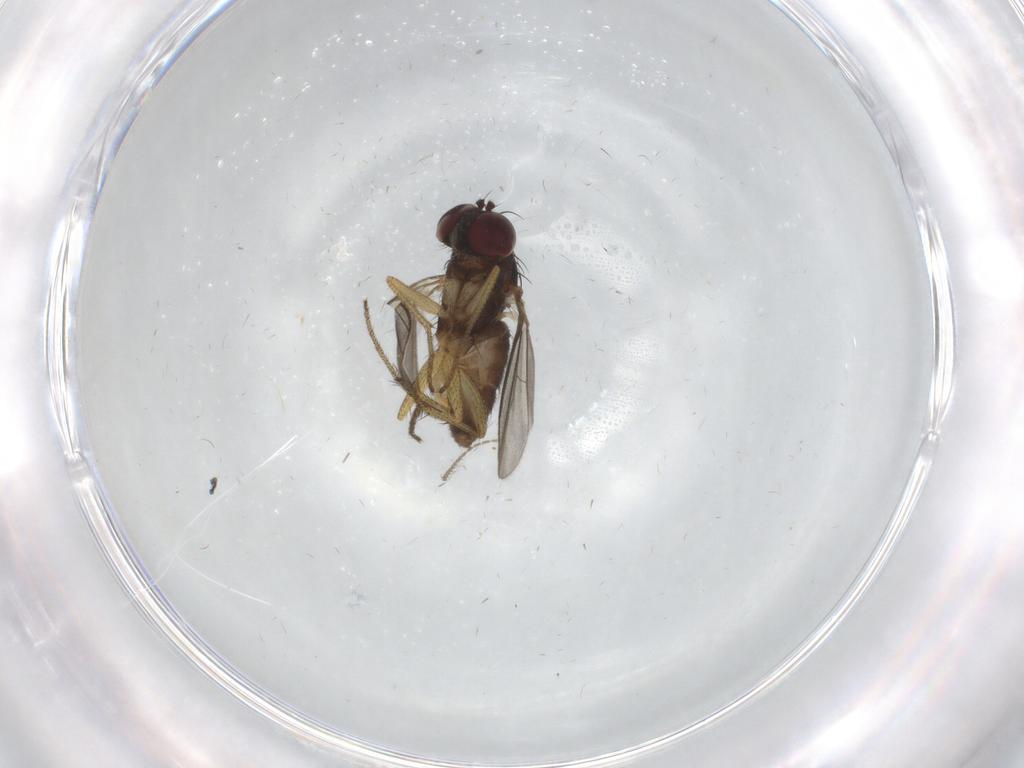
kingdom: Animalia
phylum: Arthropoda
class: Insecta
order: Diptera
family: Dolichopodidae
